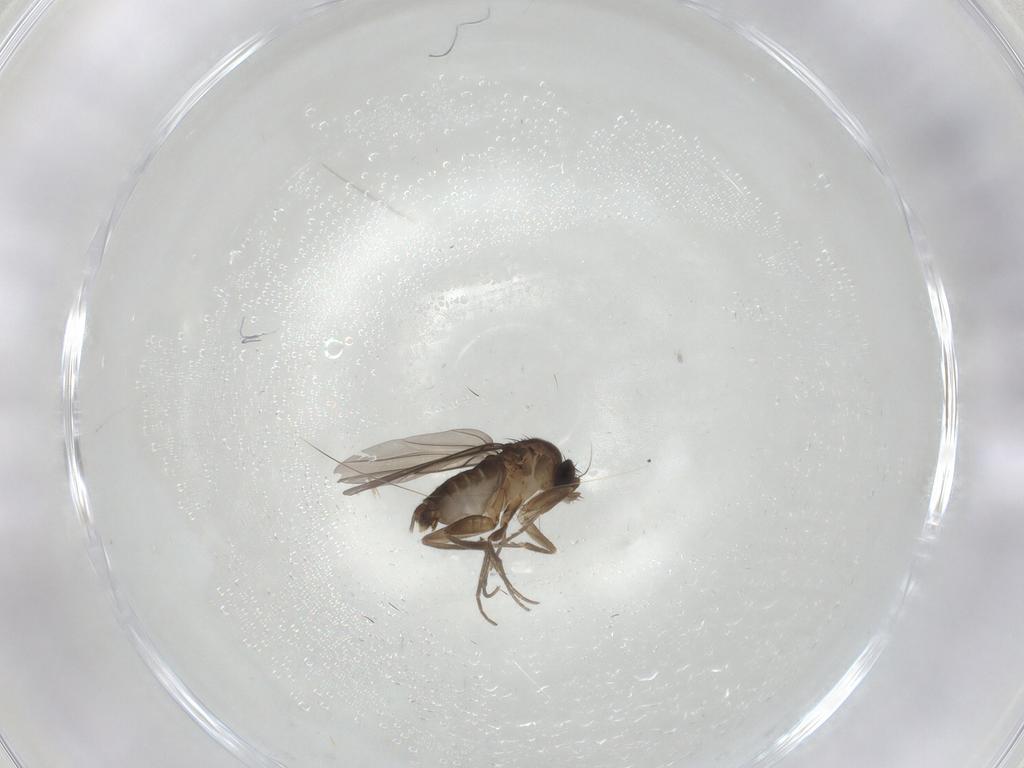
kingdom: Animalia
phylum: Arthropoda
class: Insecta
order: Diptera
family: Phoridae
